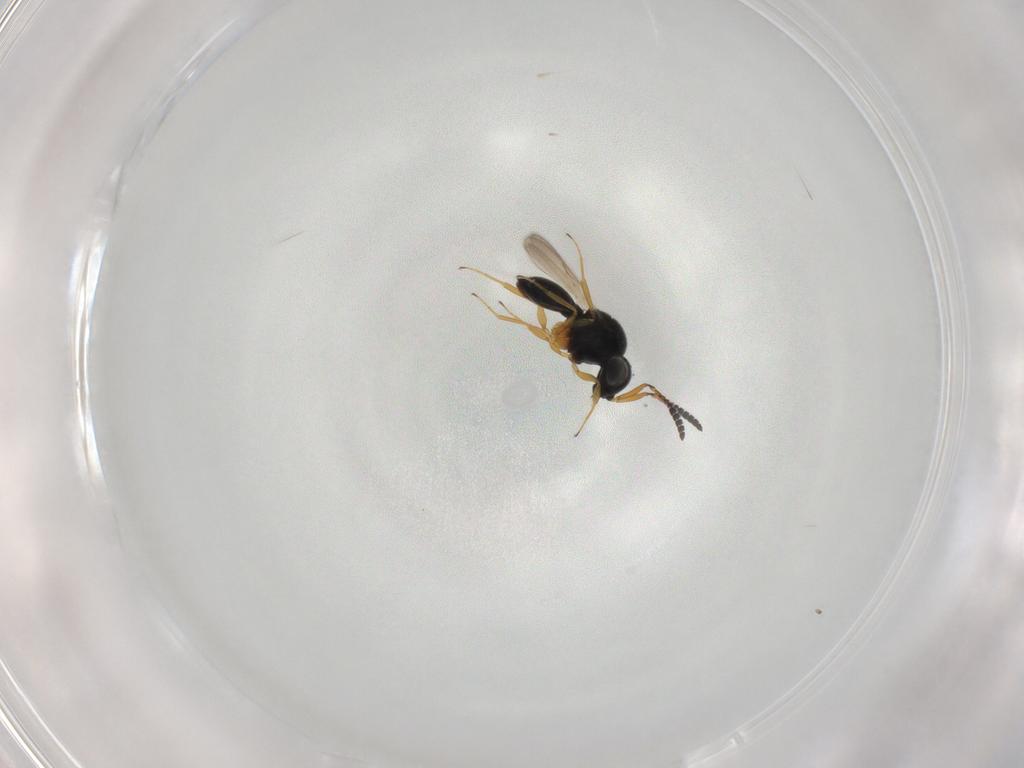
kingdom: Animalia
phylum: Arthropoda
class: Insecta
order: Hymenoptera
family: Scelionidae
